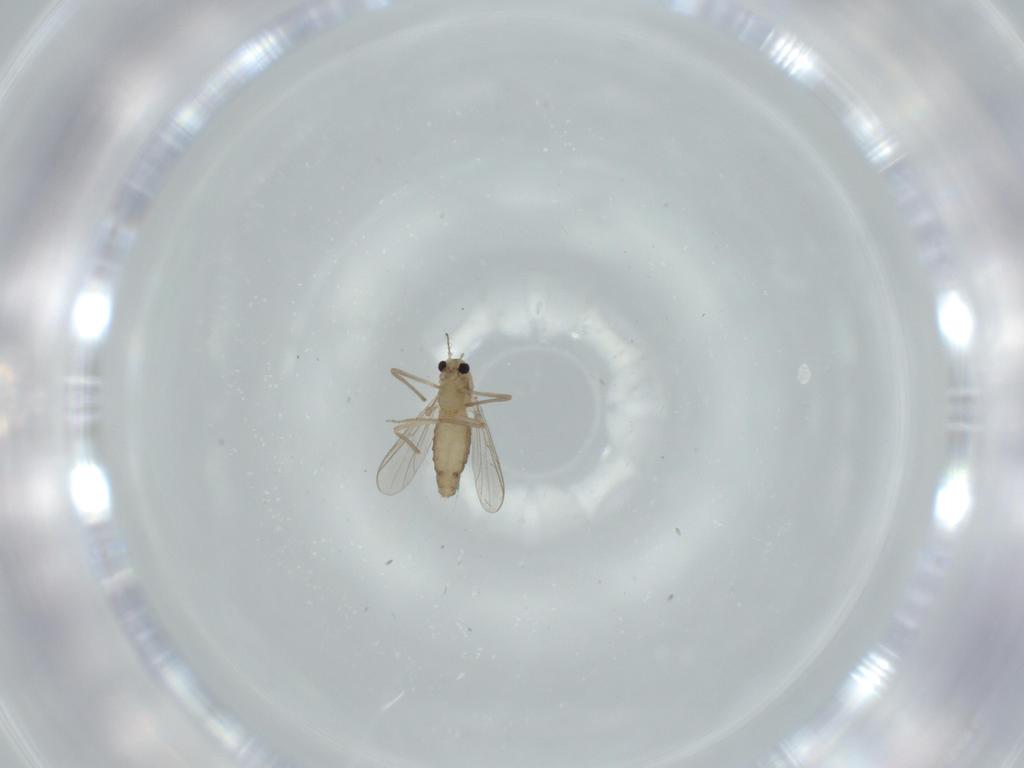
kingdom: Animalia
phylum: Arthropoda
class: Insecta
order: Diptera
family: Chironomidae
